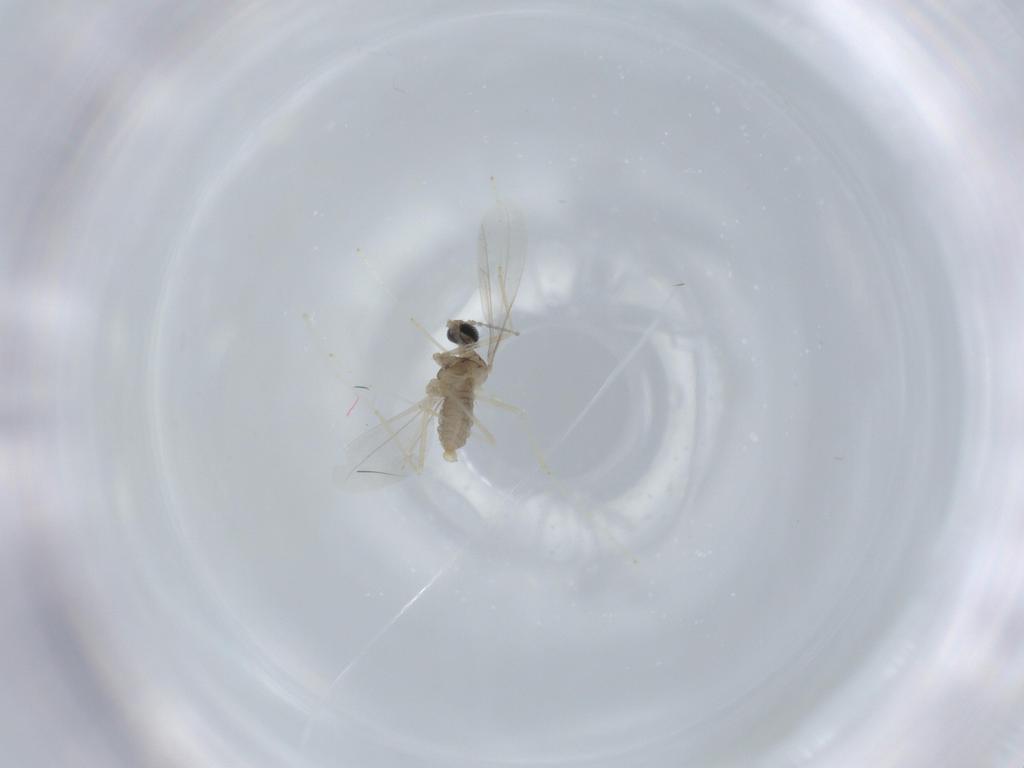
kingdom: Animalia
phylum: Arthropoda
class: Insecta
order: Diptera
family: Cecidomyiidae
